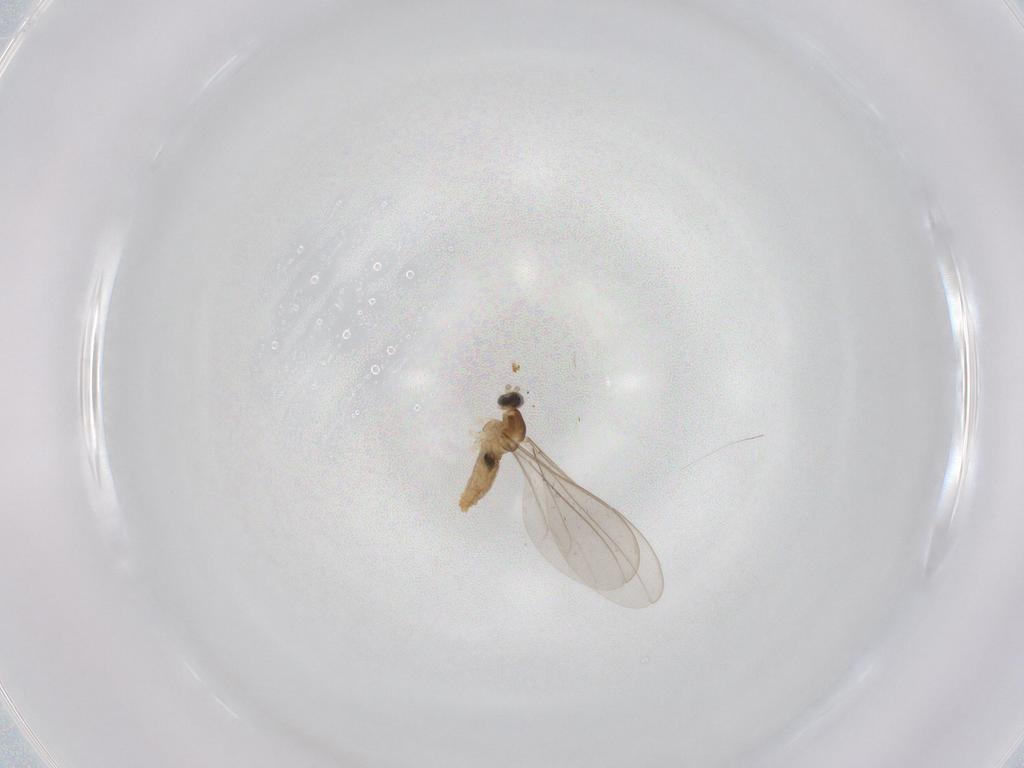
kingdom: Animalia
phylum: Arthropoda
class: Insecta
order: Diptera
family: Cecidomyiidae
